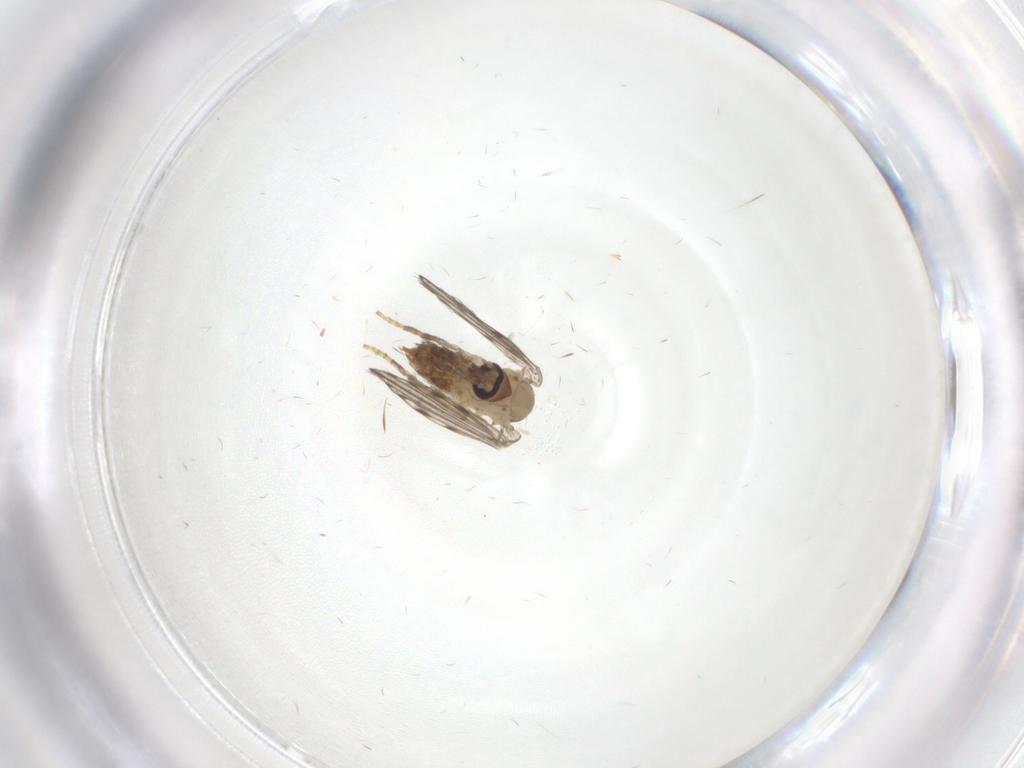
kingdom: Animalia
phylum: Arthropoda
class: Insecta
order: Diptera
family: Psychodidae
